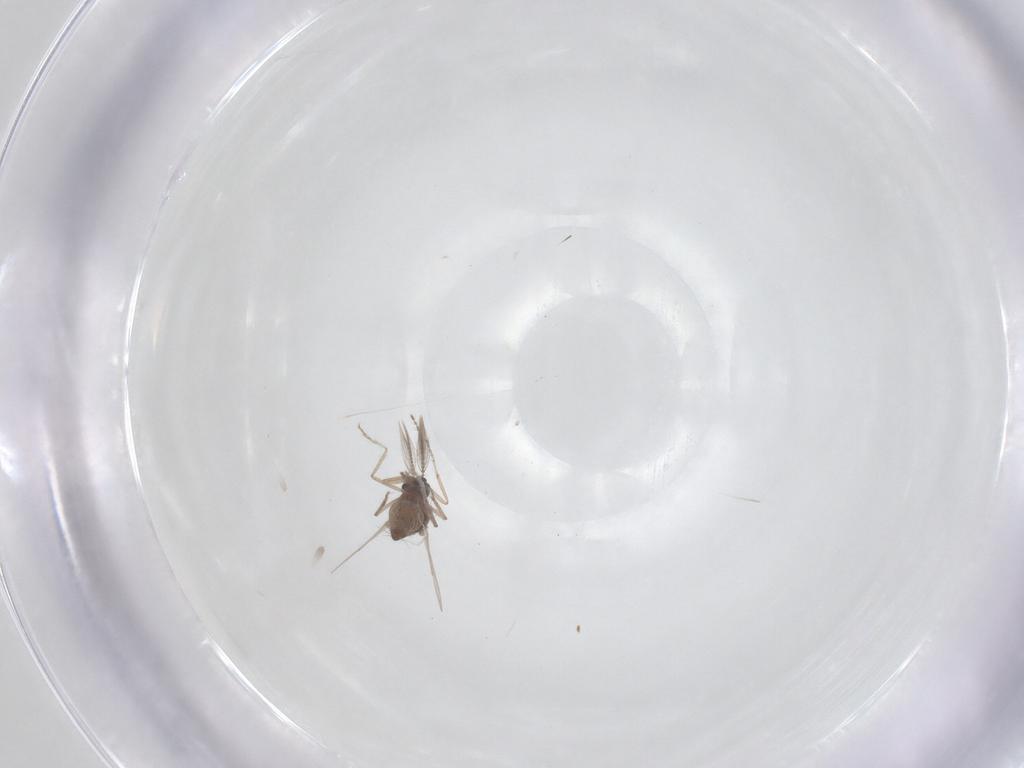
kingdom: Animalia
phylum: Arthropoda
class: Insecta
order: Diptera
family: Ceratopogonidae
